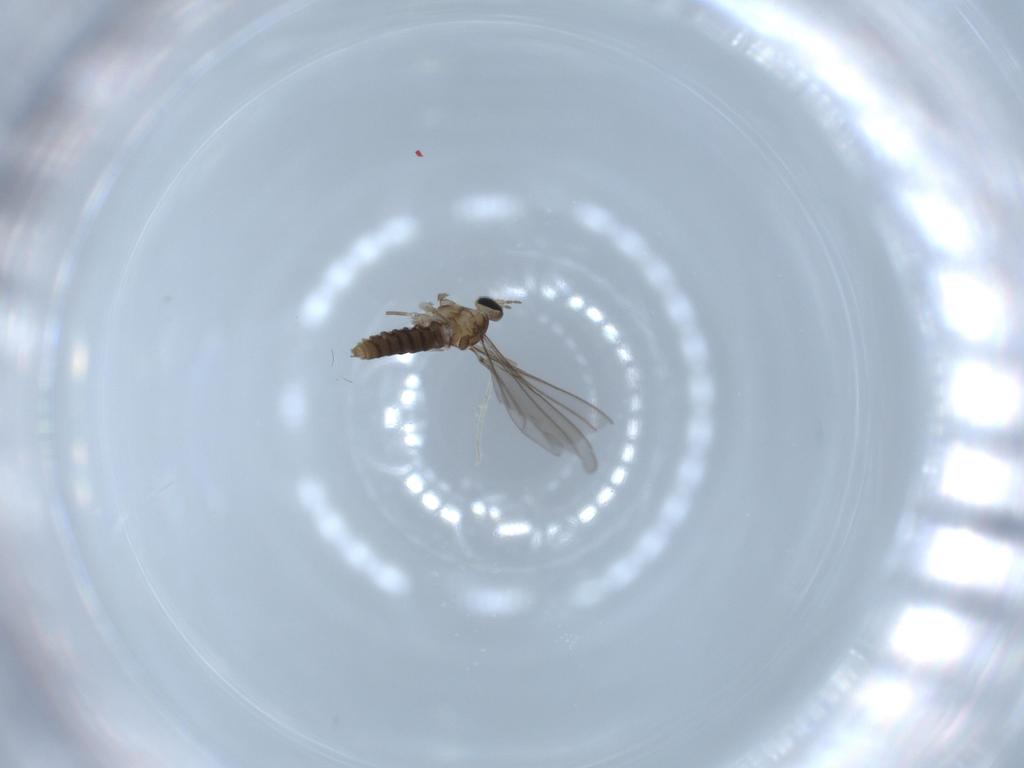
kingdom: Animalia
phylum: Arthropoda
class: Insecta
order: Diptera
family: Cecidomyiidae
